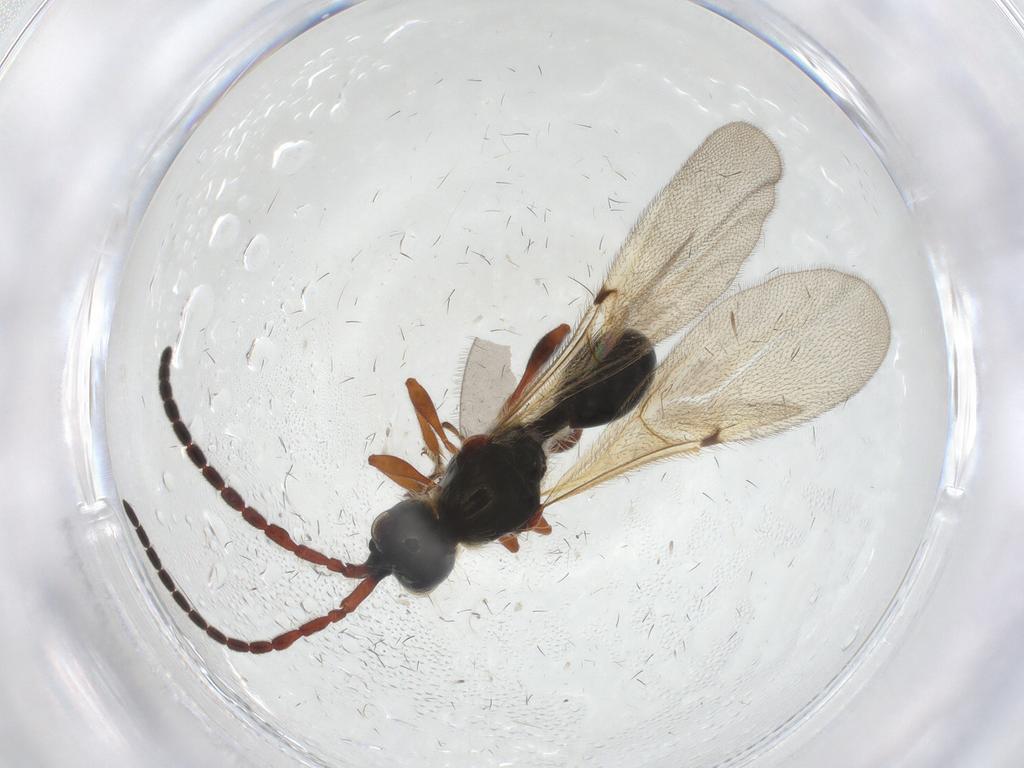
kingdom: Animalia
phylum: Arthropoda
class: Insecta
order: Hymenoptera
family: Diapriidae
